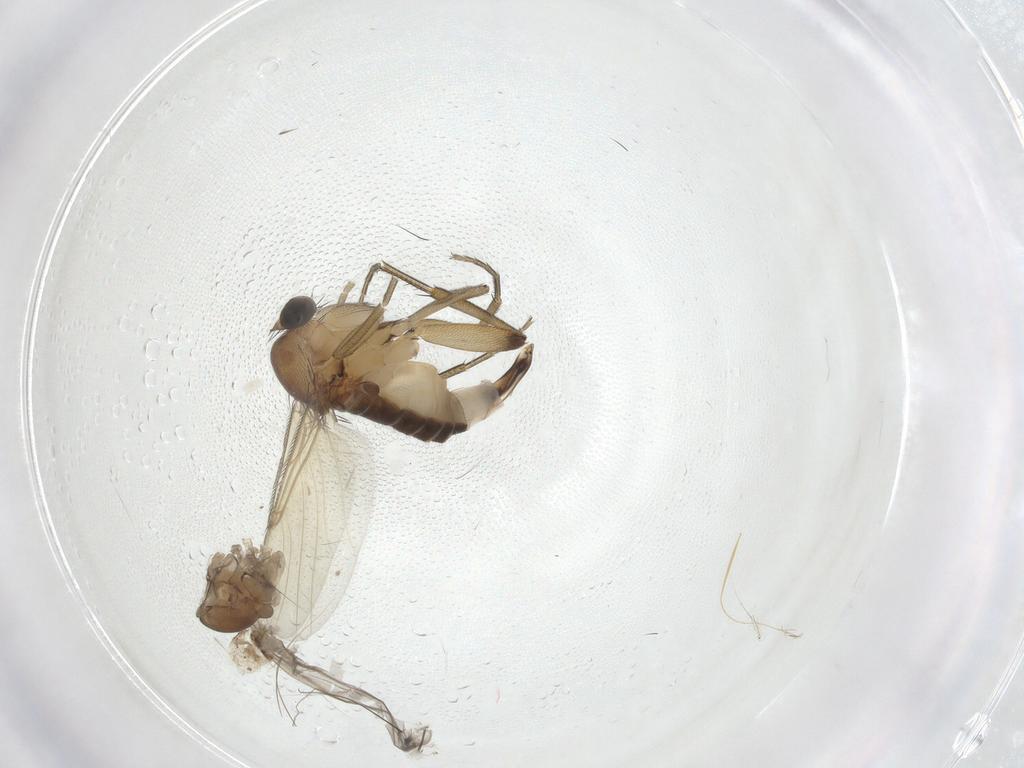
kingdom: Animalia
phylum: Arthropoda
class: Insecta
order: Diptera
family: Phoridae
